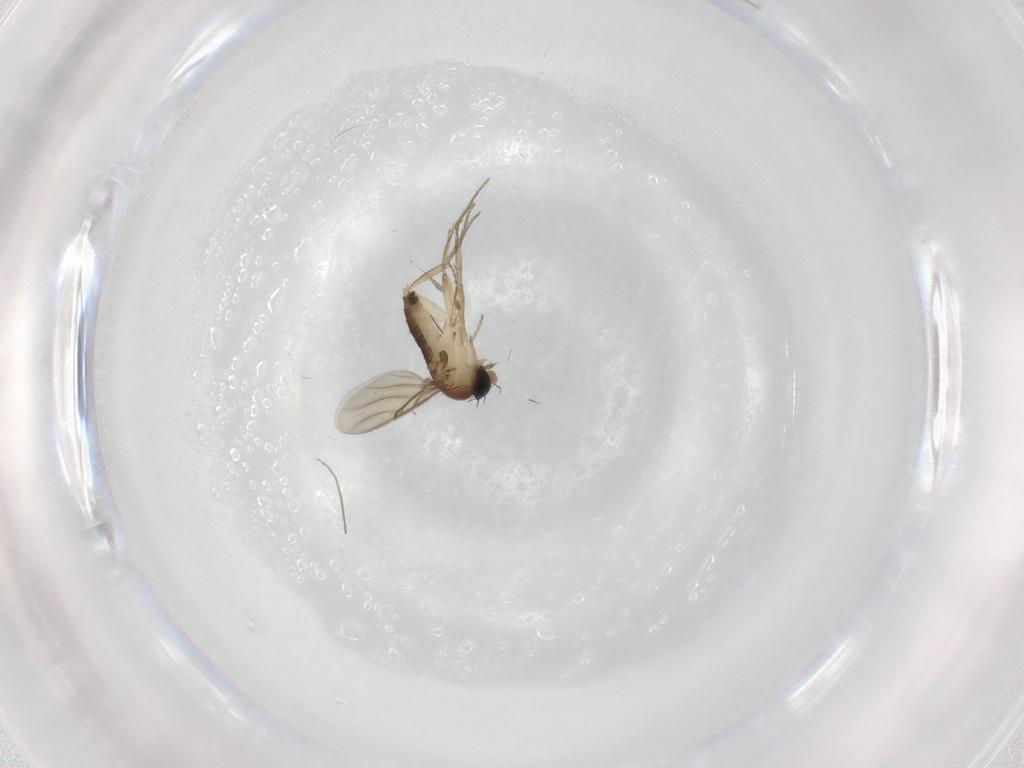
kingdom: Animalia
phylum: Arthropoda
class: Insecta
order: Diptera
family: Phoridae
